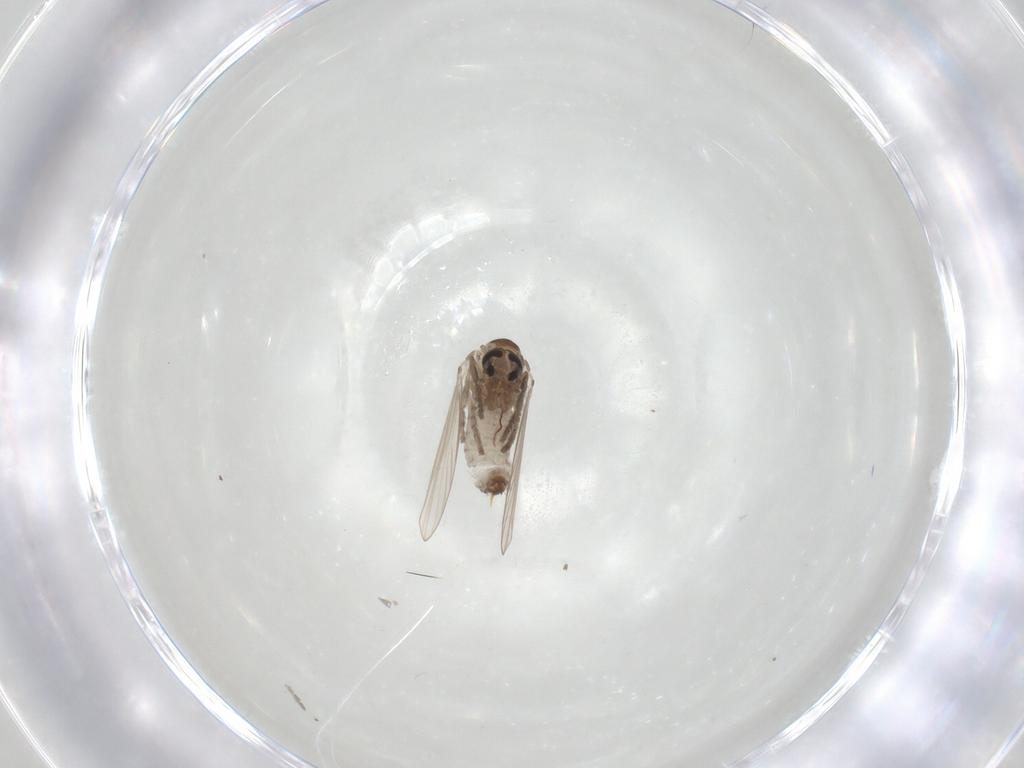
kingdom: Animalia
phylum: Arthropoda
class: Insecta
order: Diptera
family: Psychodidae
